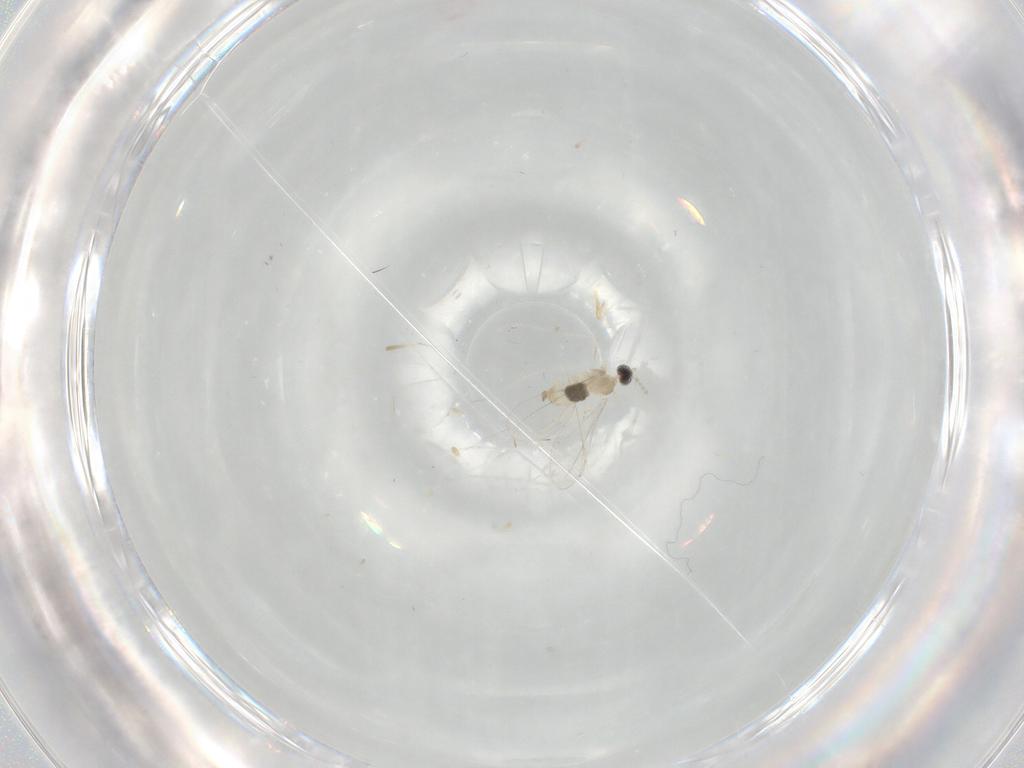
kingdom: Animalia
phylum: Arthropoda
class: Insecta
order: Diptera
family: Cecidomyiidae
